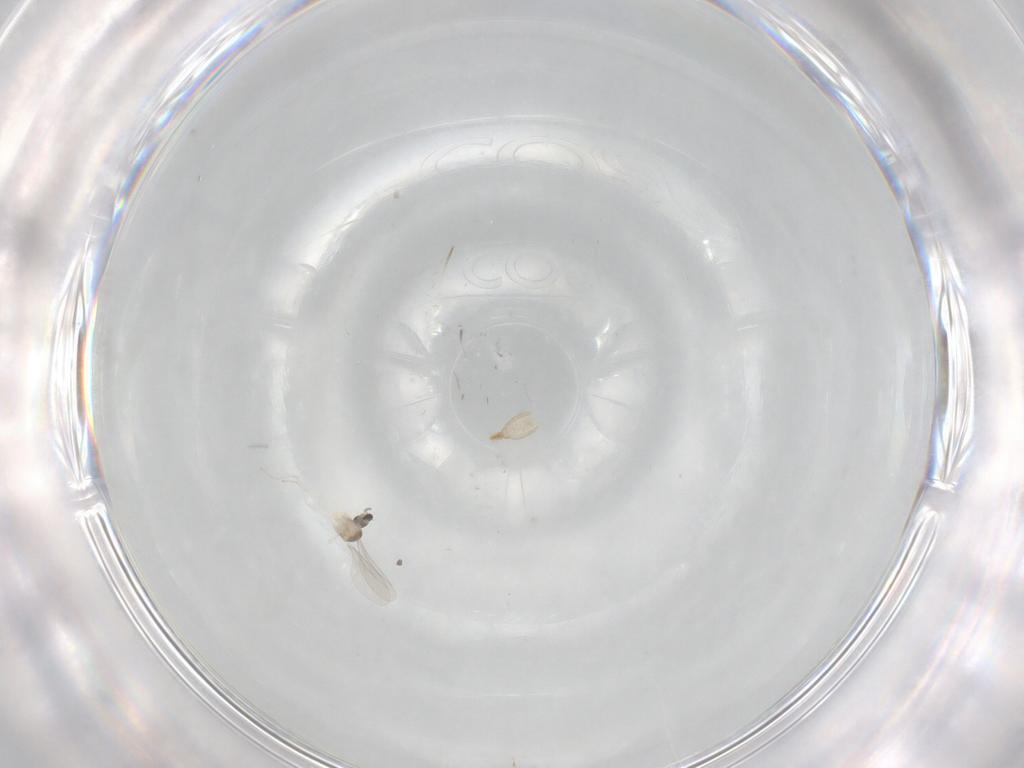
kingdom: Animalia
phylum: Arthropoda
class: Insecta
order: Diptera
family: Cecidomyiidae
